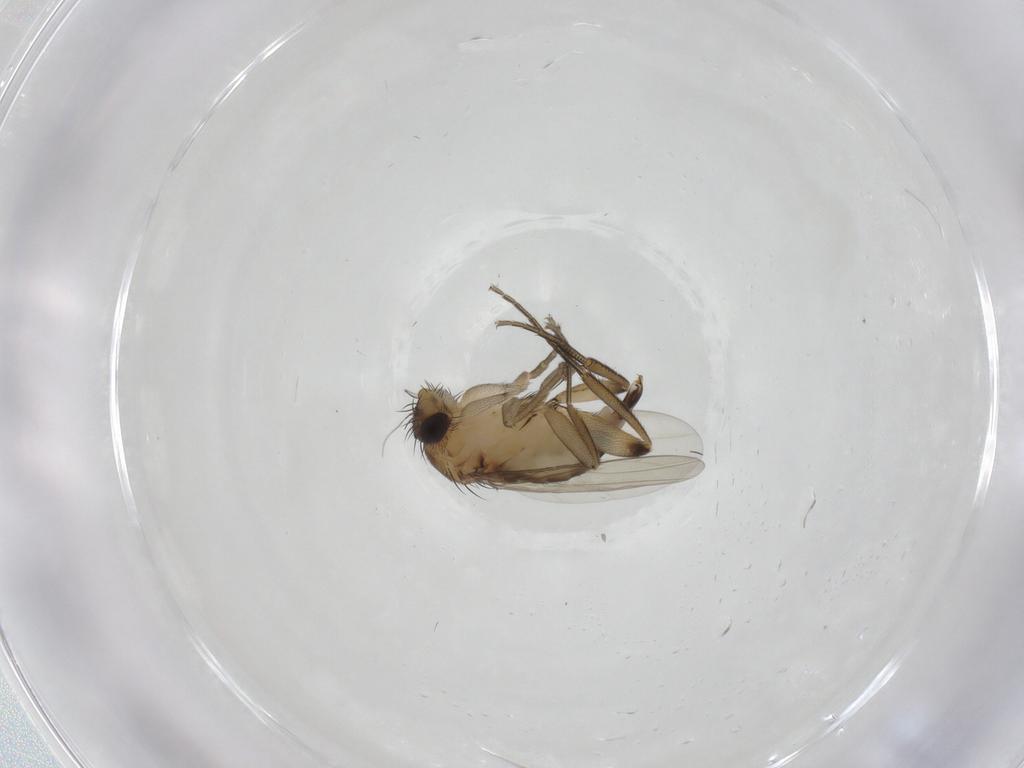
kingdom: Animalia
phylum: Arthropoda
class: Insecta
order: Diptera
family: Phoridae
